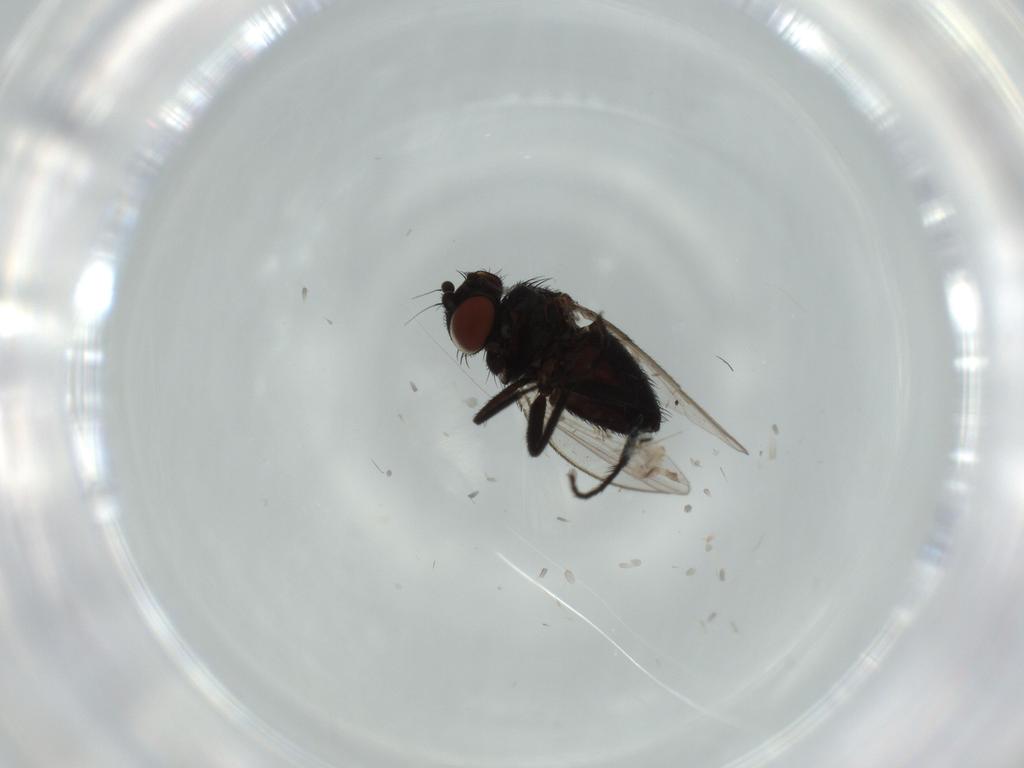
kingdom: Animalia
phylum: Arthropoda
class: Insecta
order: Diptera
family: Milichiidae
